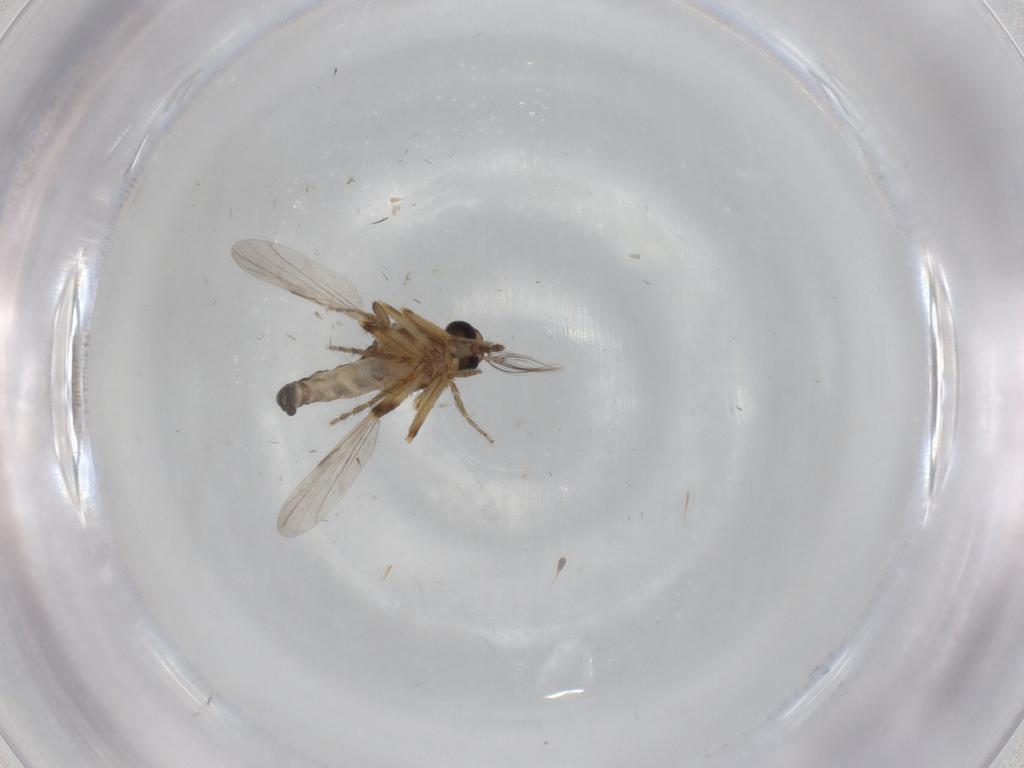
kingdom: Animalia
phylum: Arthropoda
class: Insecta
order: Diptera
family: Ceratopogonidae
